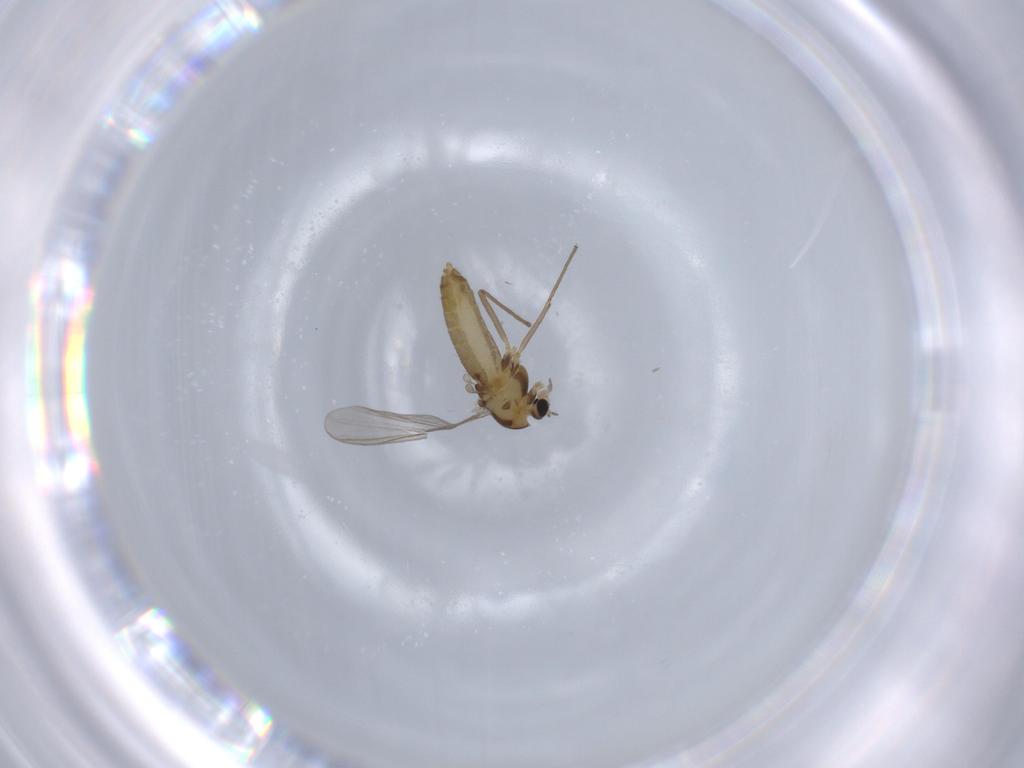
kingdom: Animalia
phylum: Arthropoda
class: Insecta
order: Diptera
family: Chironomidae
